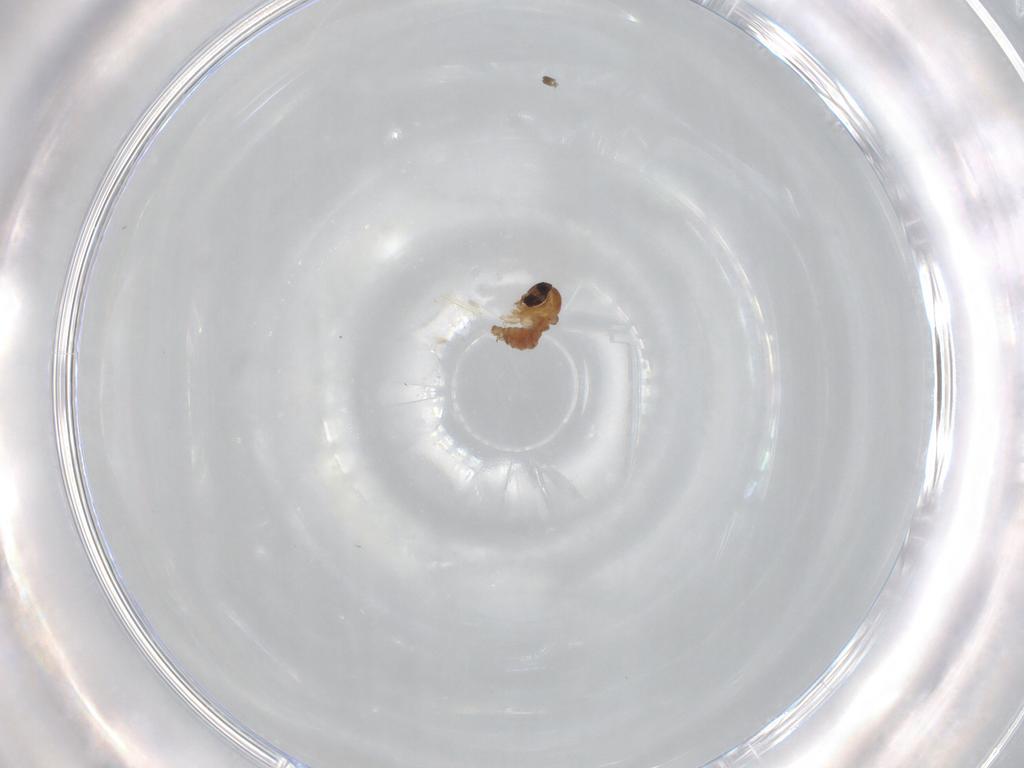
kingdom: Animalia
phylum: Arthropoda
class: Insecta
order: Diptera
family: Psychodidae
